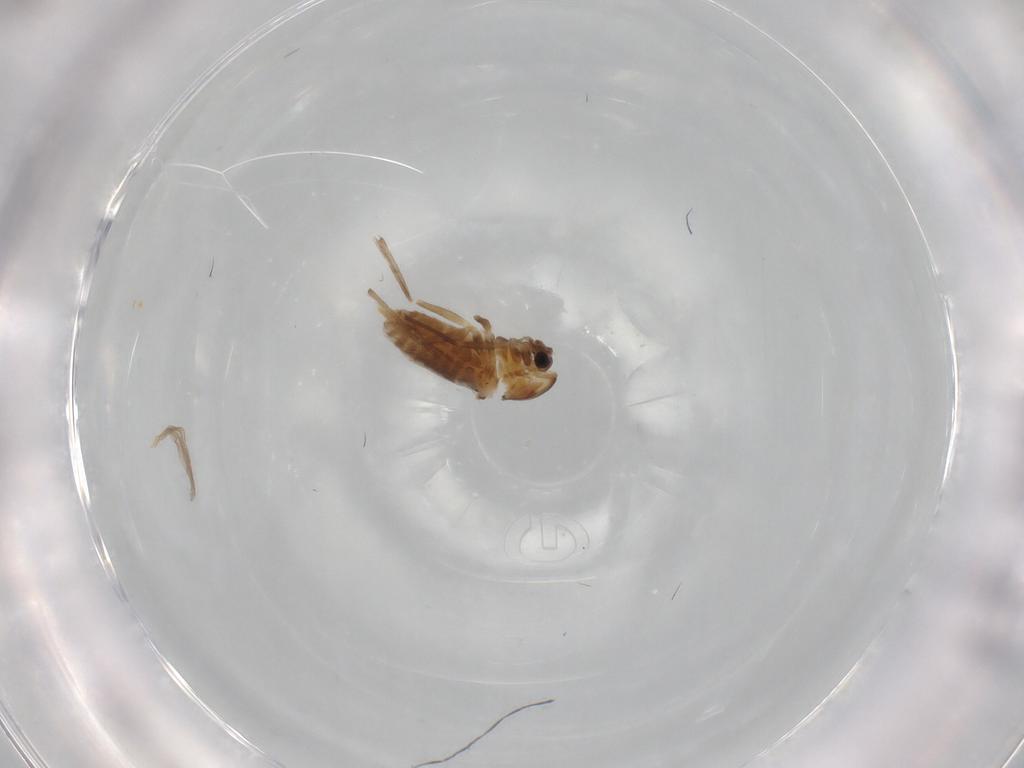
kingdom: Animalia
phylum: Arthropoda
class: Insecta
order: Diptera
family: Chironomidae
